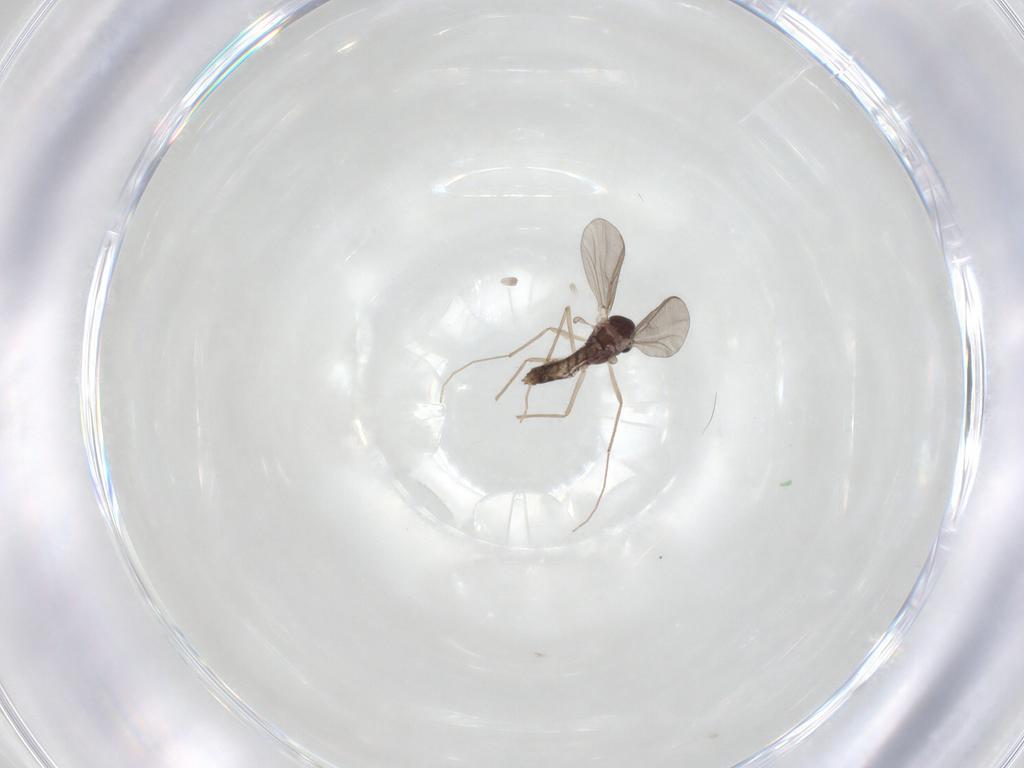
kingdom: Animalia
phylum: Arthropoda
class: Insecta
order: Diptera
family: Chironomidae
